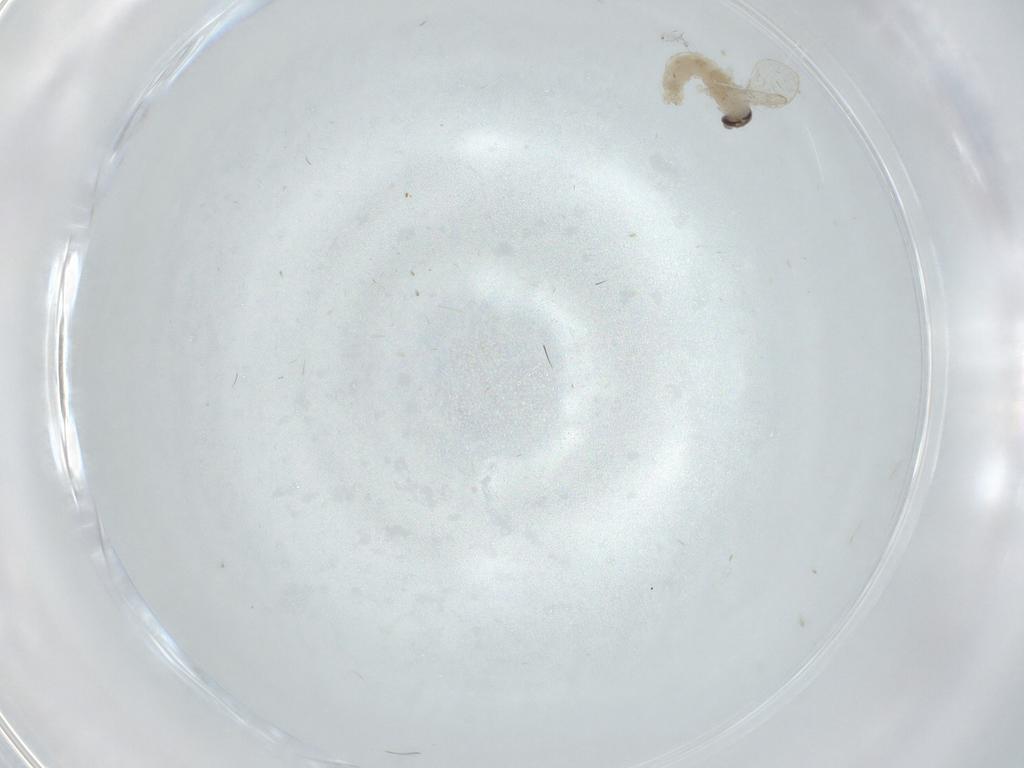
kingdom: Animalia
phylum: Arthropoda
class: Insecta
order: Diptera
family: Psychodidae
